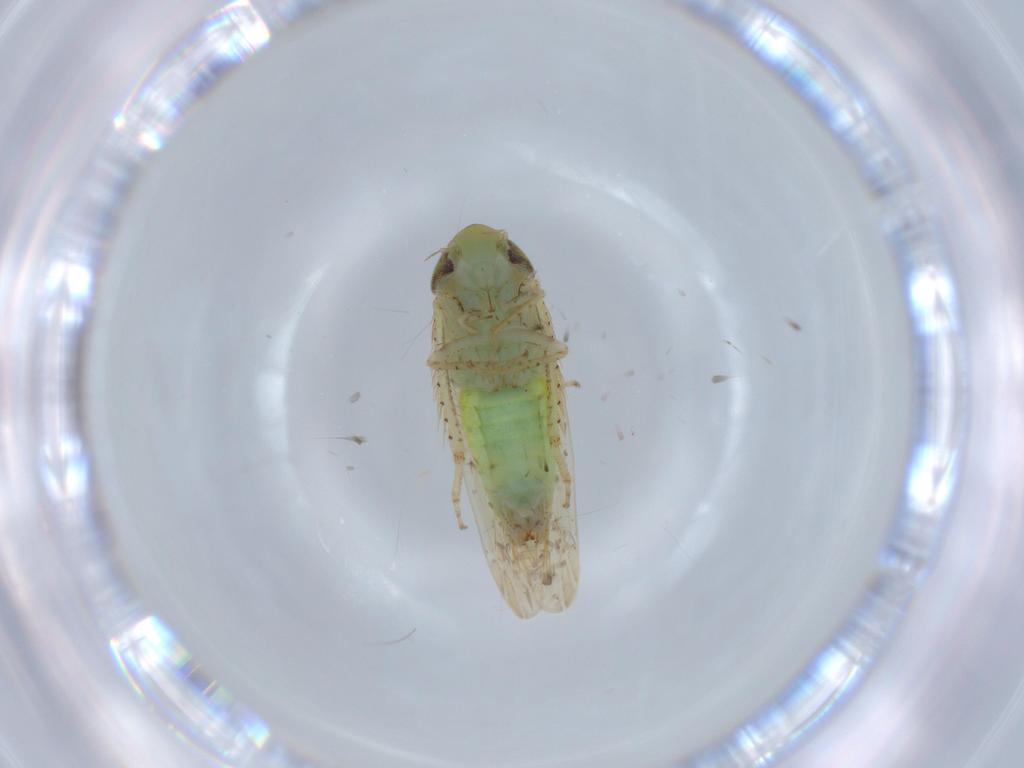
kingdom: Animalia
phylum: Arthropoda
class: Insecta
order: Hemiptera
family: Cicadellidae
